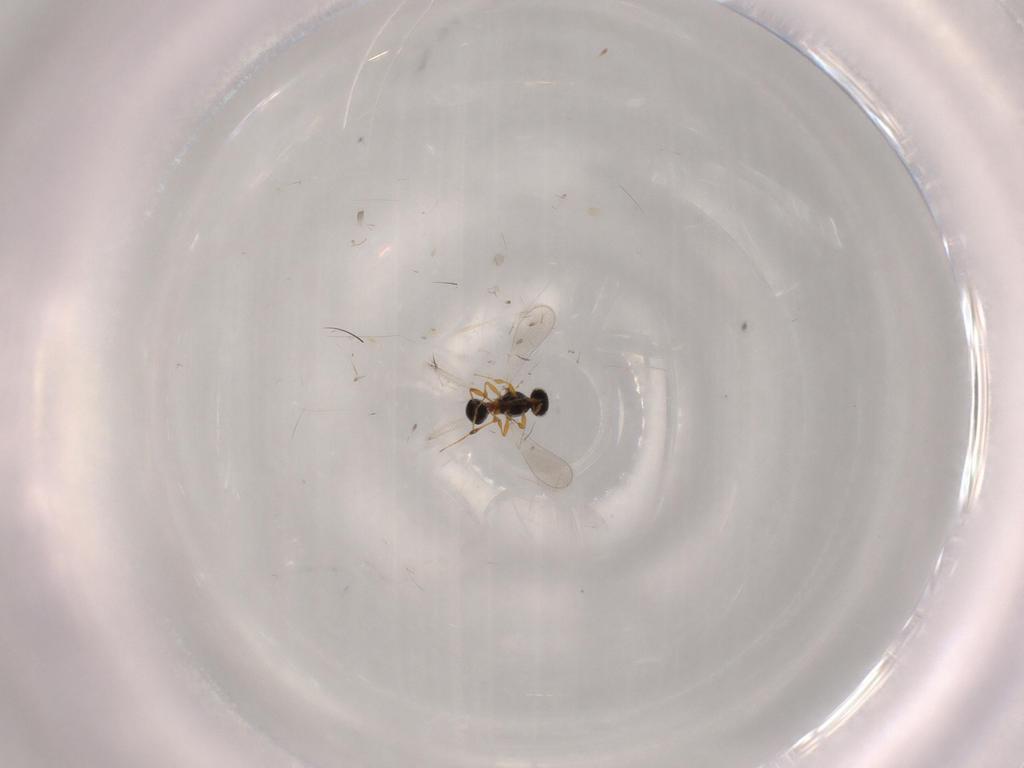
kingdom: Animalia
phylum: Arthropoda
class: Insecta
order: Hymenoptera
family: Platygastridae
